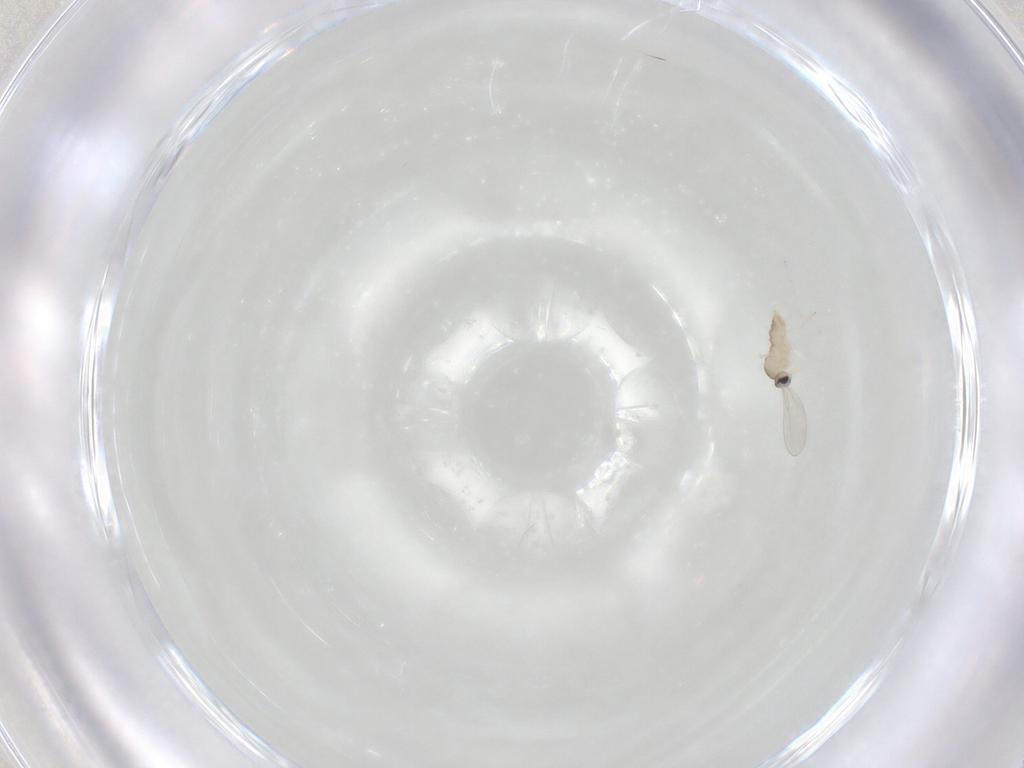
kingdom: Animalia
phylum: Arthropoda
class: Insecta
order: Diptera
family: Cecidomyiidae
